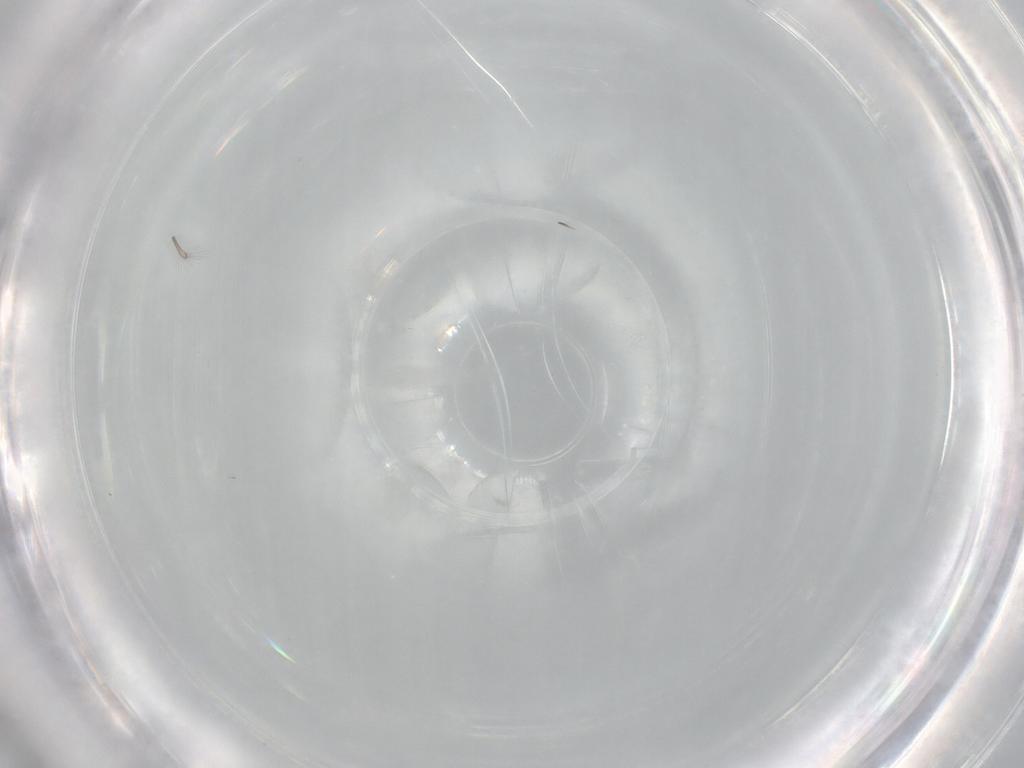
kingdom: Animalia
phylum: Arthropoda
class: Insecta
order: Hymenoptera
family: Mymaridae
